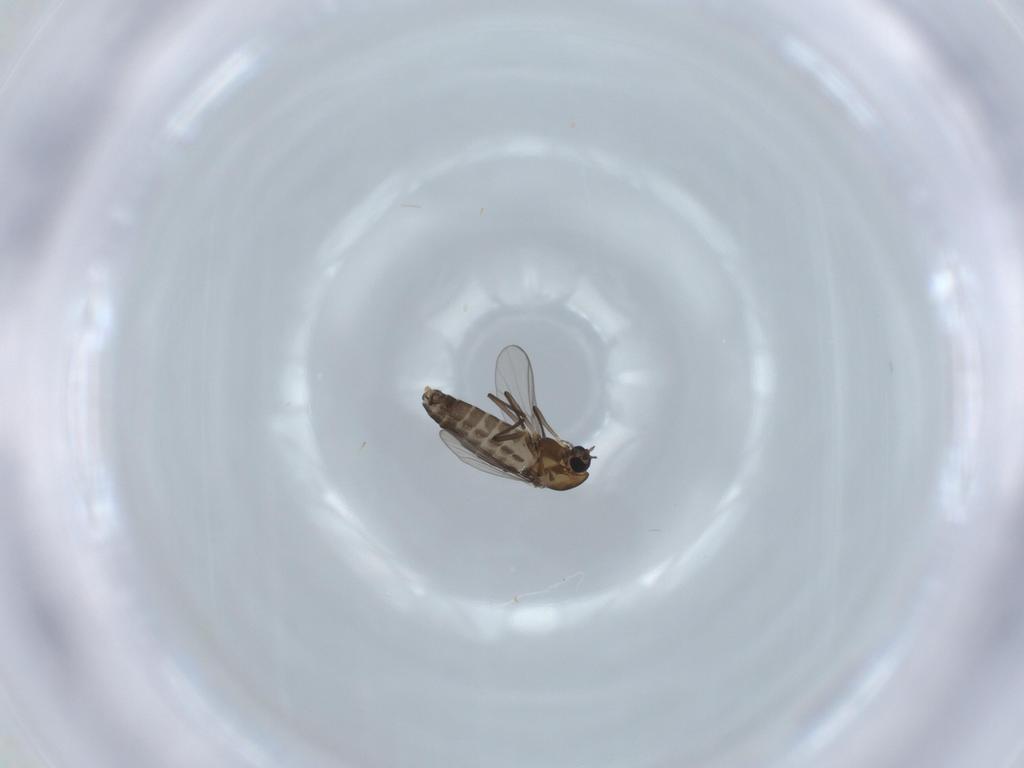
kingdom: Animalia
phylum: Arthropoda
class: Insecta
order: Diptera
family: Chironomidae
